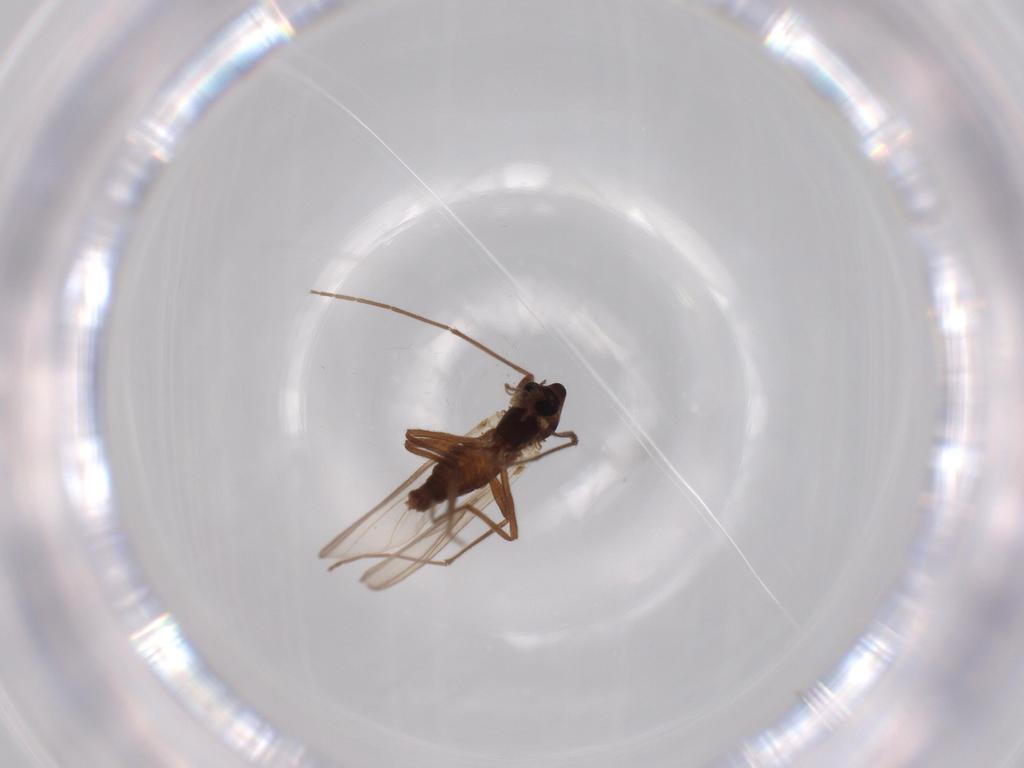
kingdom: Animalia
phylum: Arthropoda
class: Insecta
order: Diptera
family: Chironomidae
